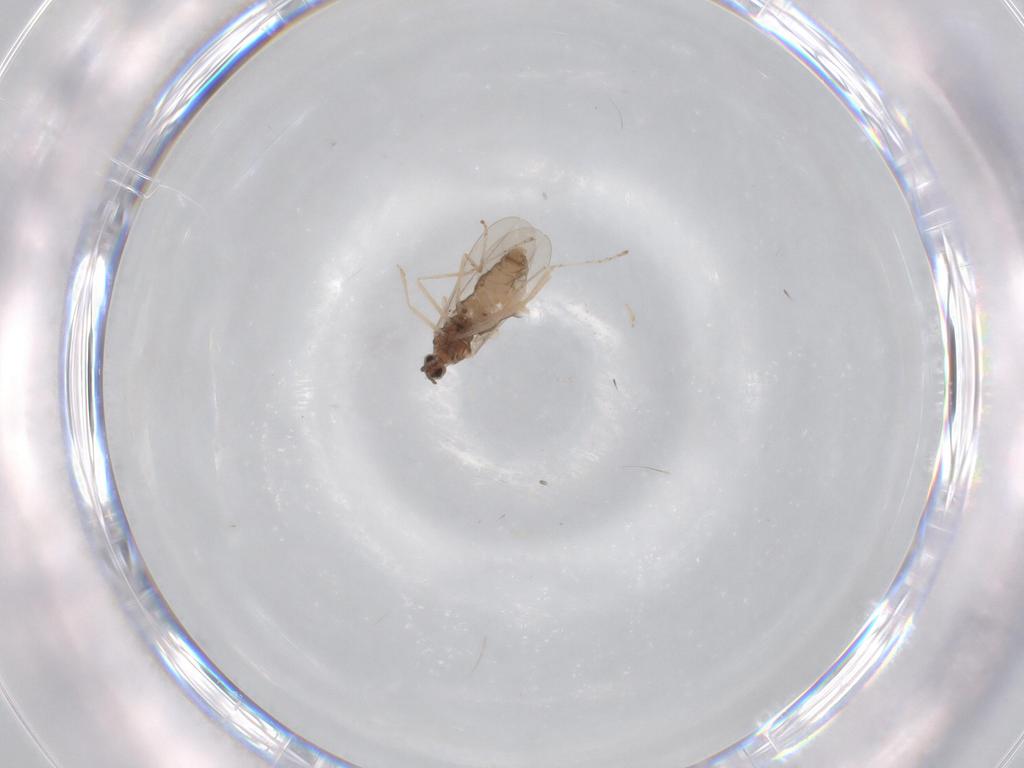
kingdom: Animalia
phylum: Arthropoda
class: Insecta
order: Diptera
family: Cecidomyiidae
